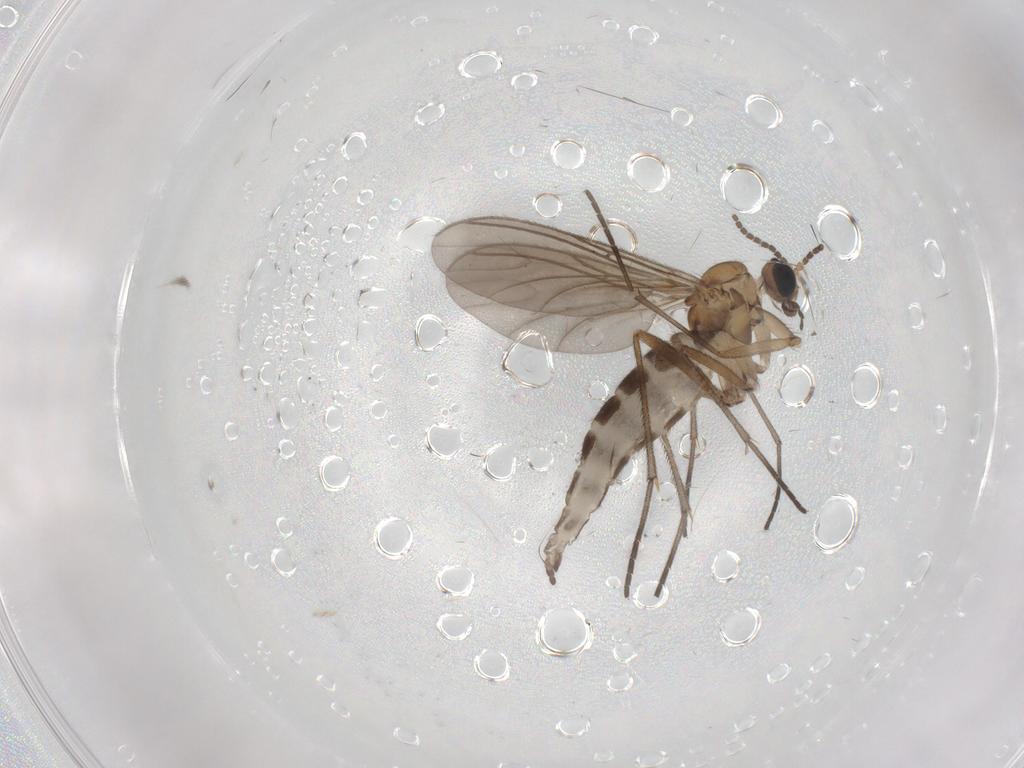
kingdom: Animalia
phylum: Arthropoda
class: Insecta
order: Diptera
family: Sciaridae
